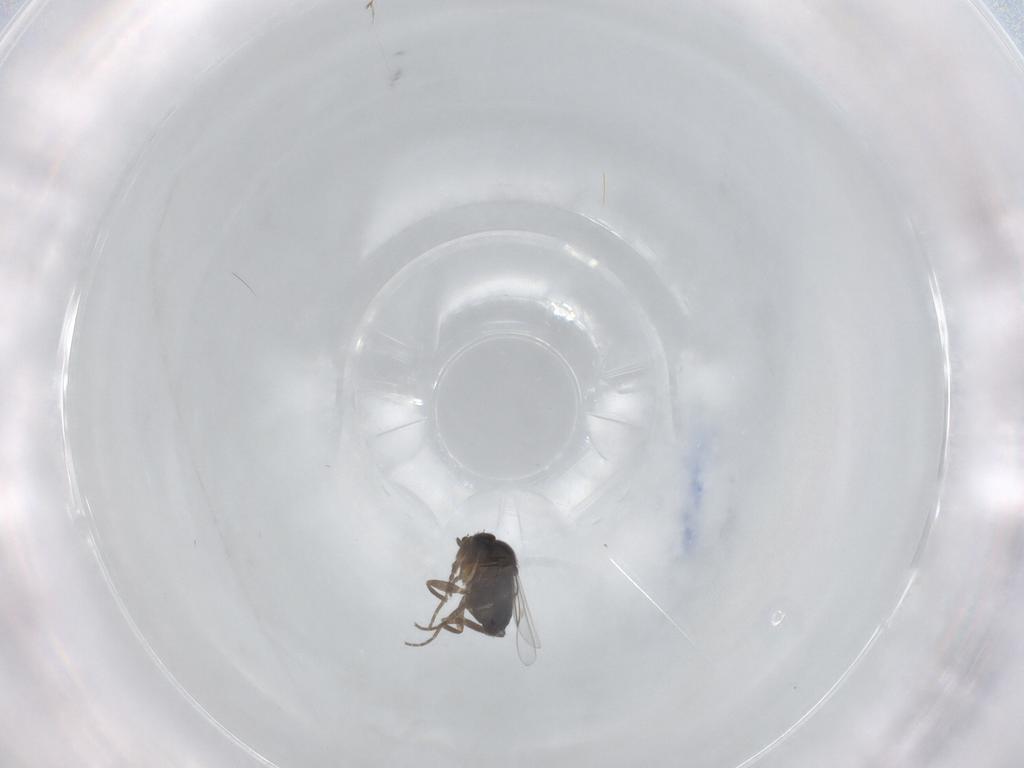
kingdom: Animalia
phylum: Arthropoda
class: Insecta
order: Diptera
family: Phoridae
